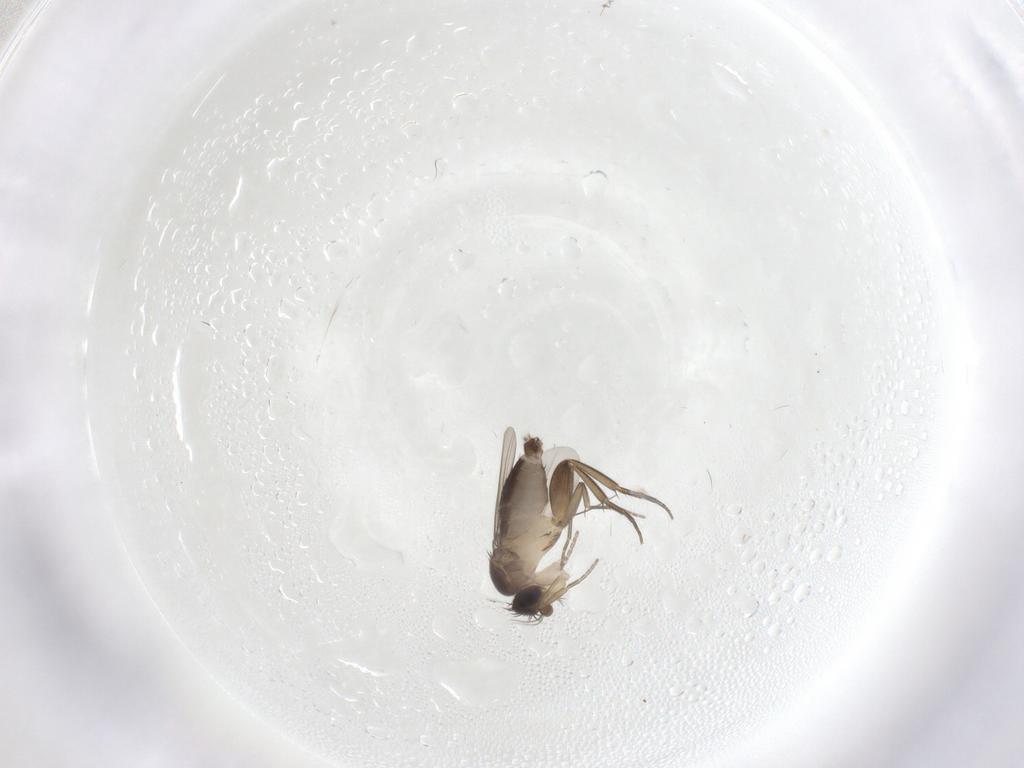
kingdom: Animalia
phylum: Arthropoda
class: Insecta
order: Diptera
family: Phoridae
